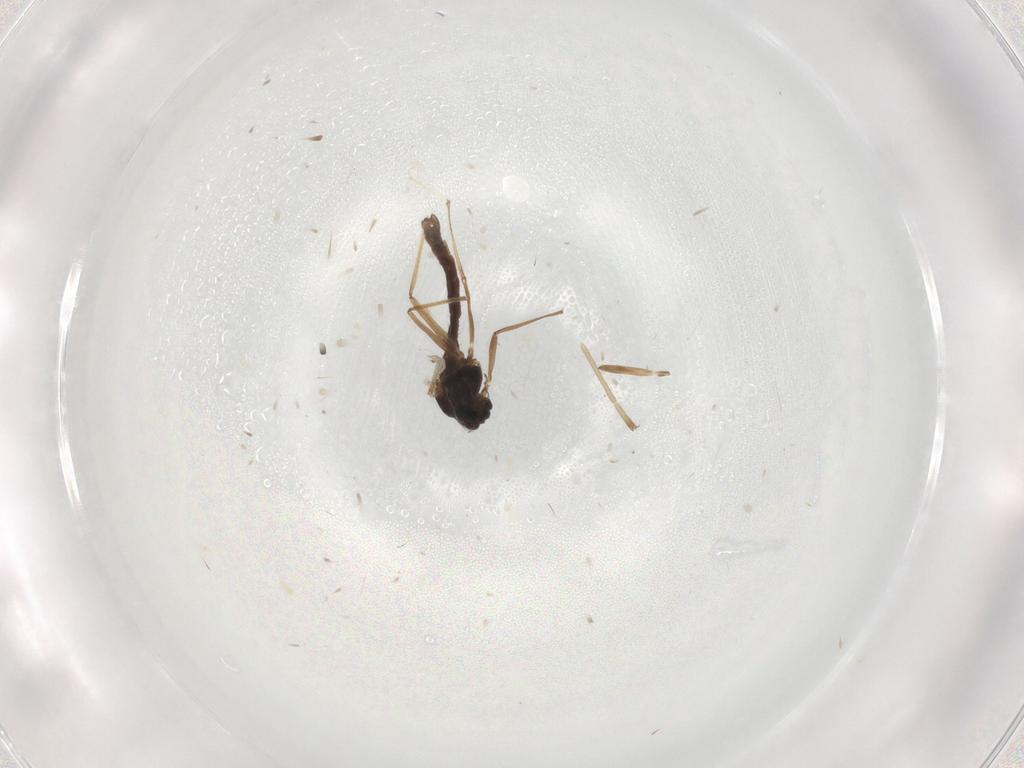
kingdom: Animalia
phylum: Arthropoda
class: Insecta
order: Diptera
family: Chironomidae
